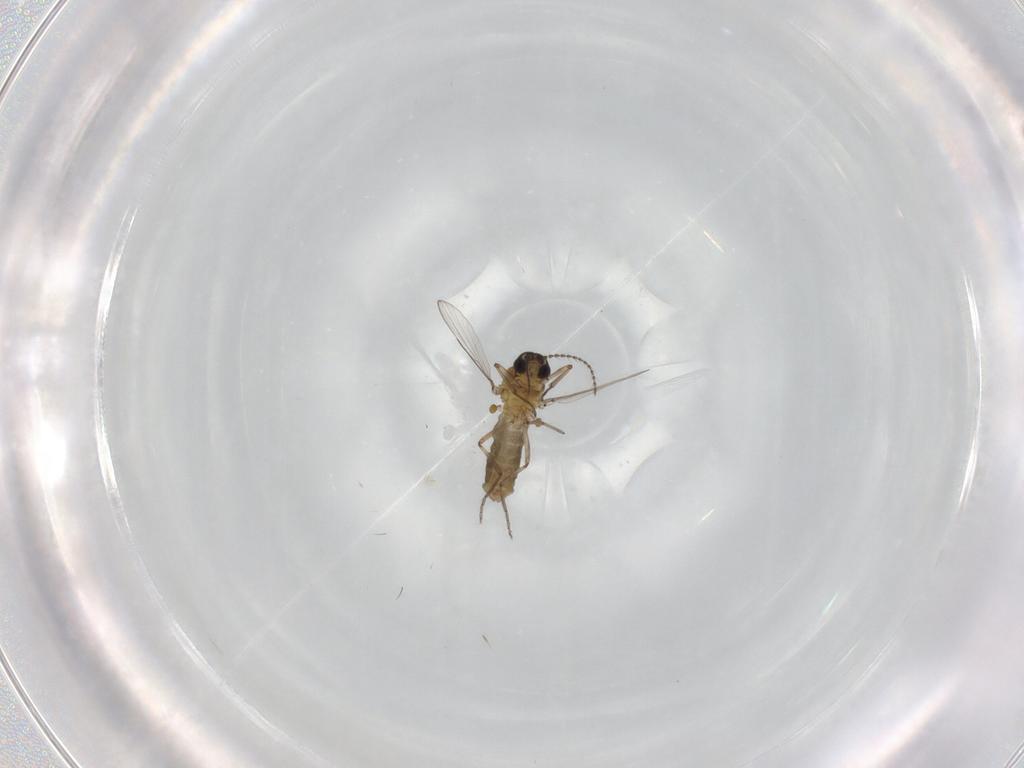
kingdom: Animalia
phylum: Arthropoda
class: Insecta
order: Diptera
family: Ceratopogonidae
